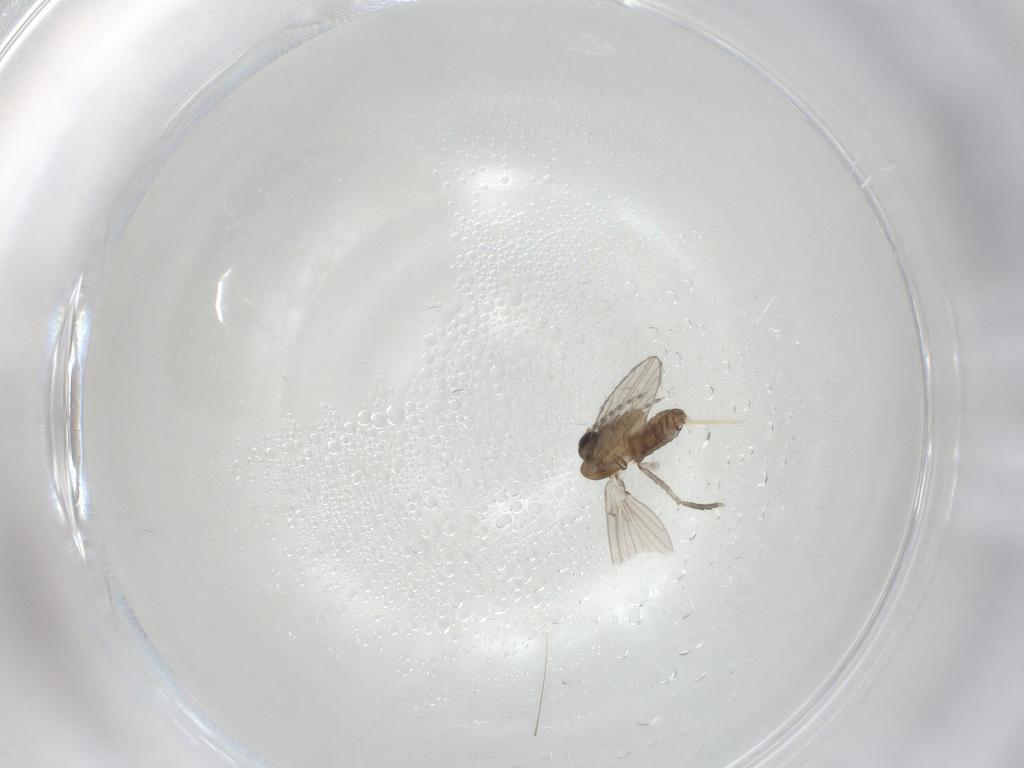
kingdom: Animalia
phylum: Arthropoda
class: Insecta
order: Diptera
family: Chironomidae
